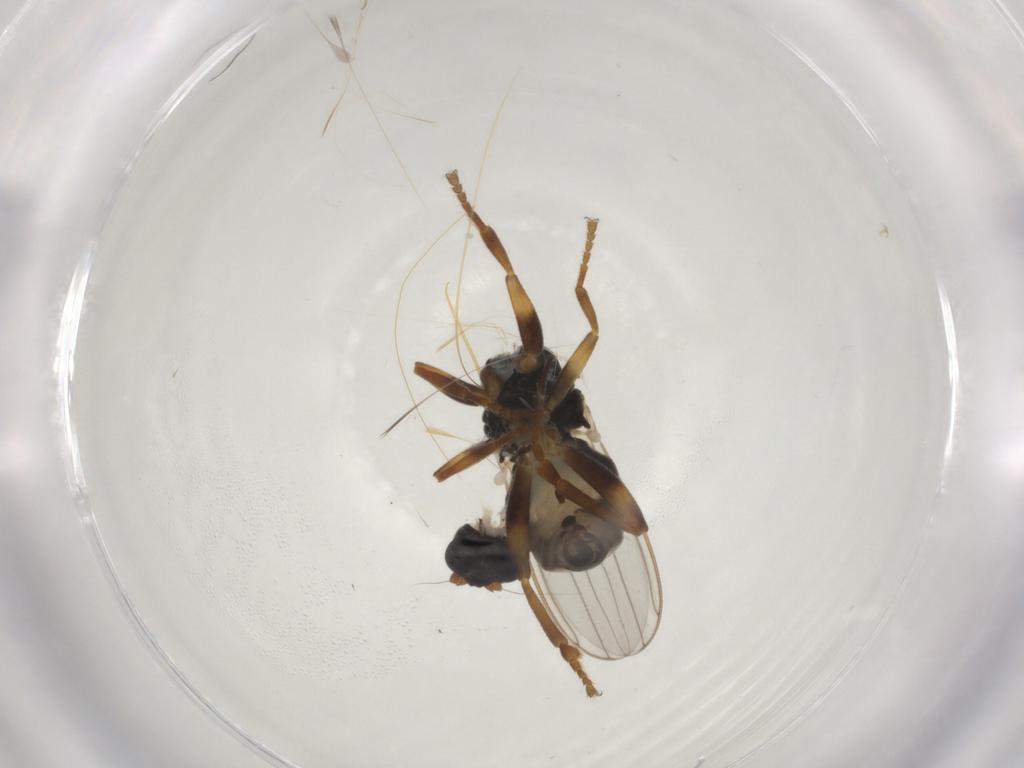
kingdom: Animalia
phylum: Arthropoda
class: Insecta
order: Diptera
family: Sphaeroceridae
